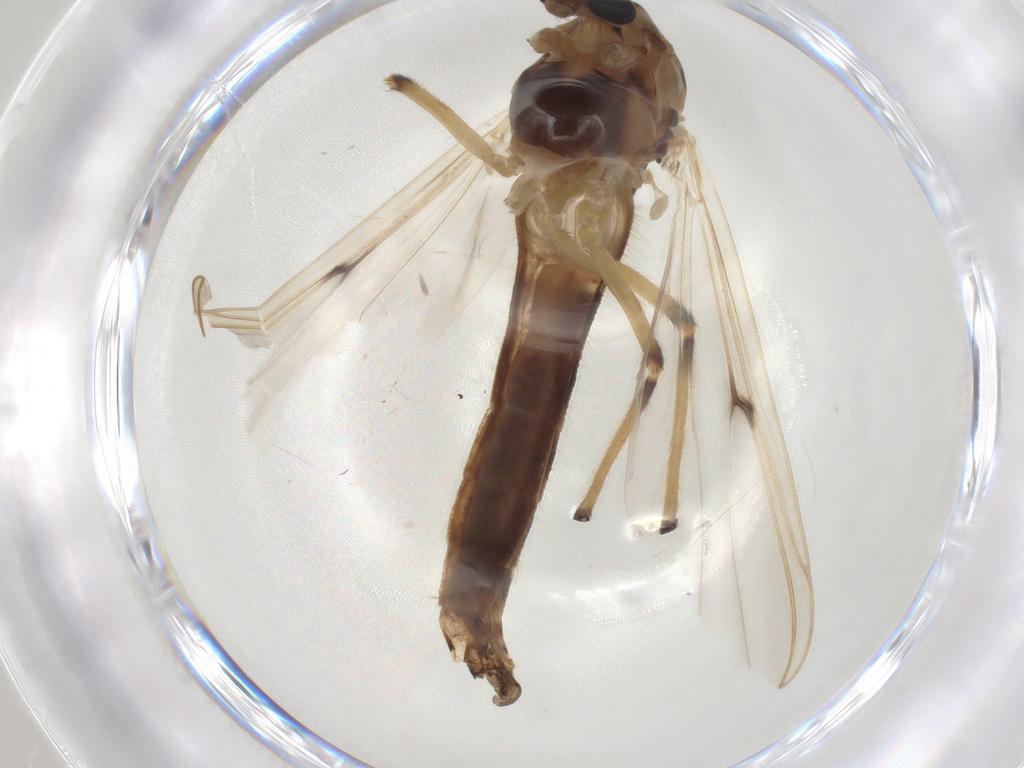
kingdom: Animalia
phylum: Arthropoda
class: Insecta
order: Diptera
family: Chironomidae
